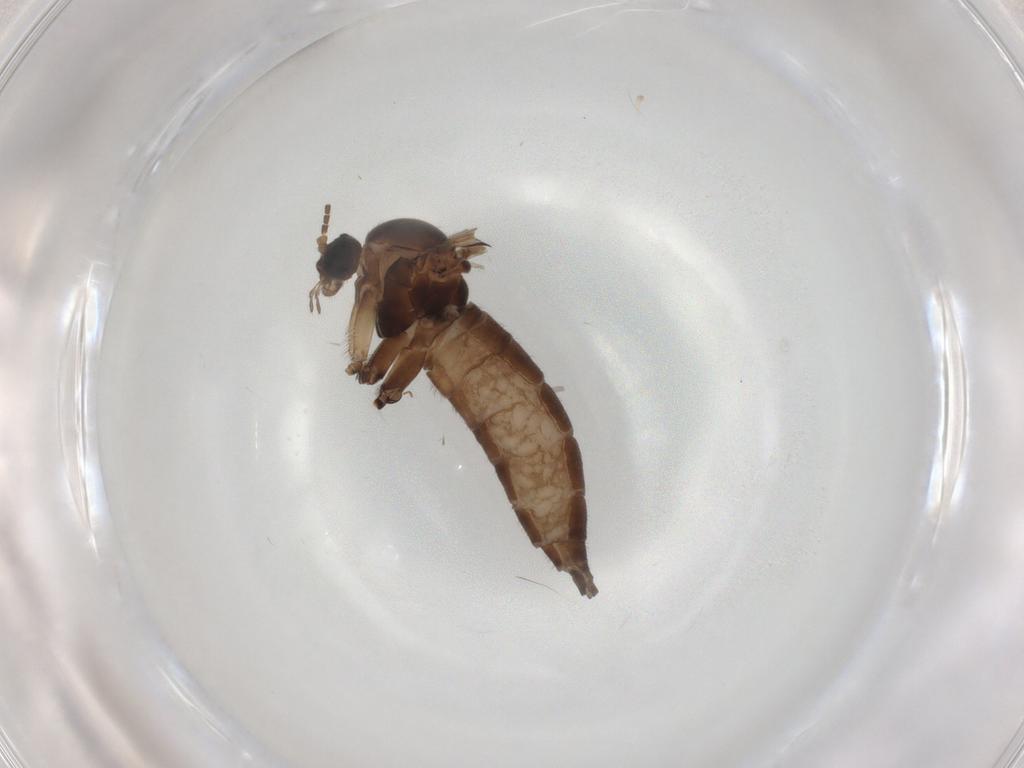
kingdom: Animalia
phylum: Arthropoda
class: Insecta
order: Diptera
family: Sciaridae
